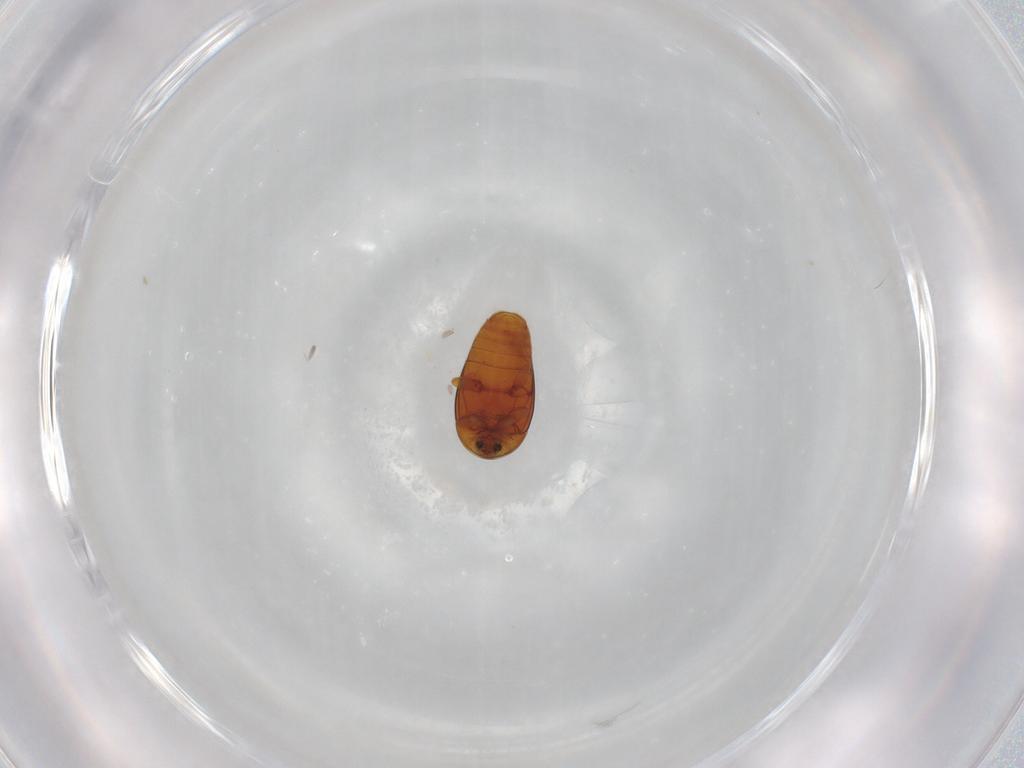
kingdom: Animalia
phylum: Arthropoda
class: Insecta
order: Coleoptera
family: Corylophidae
